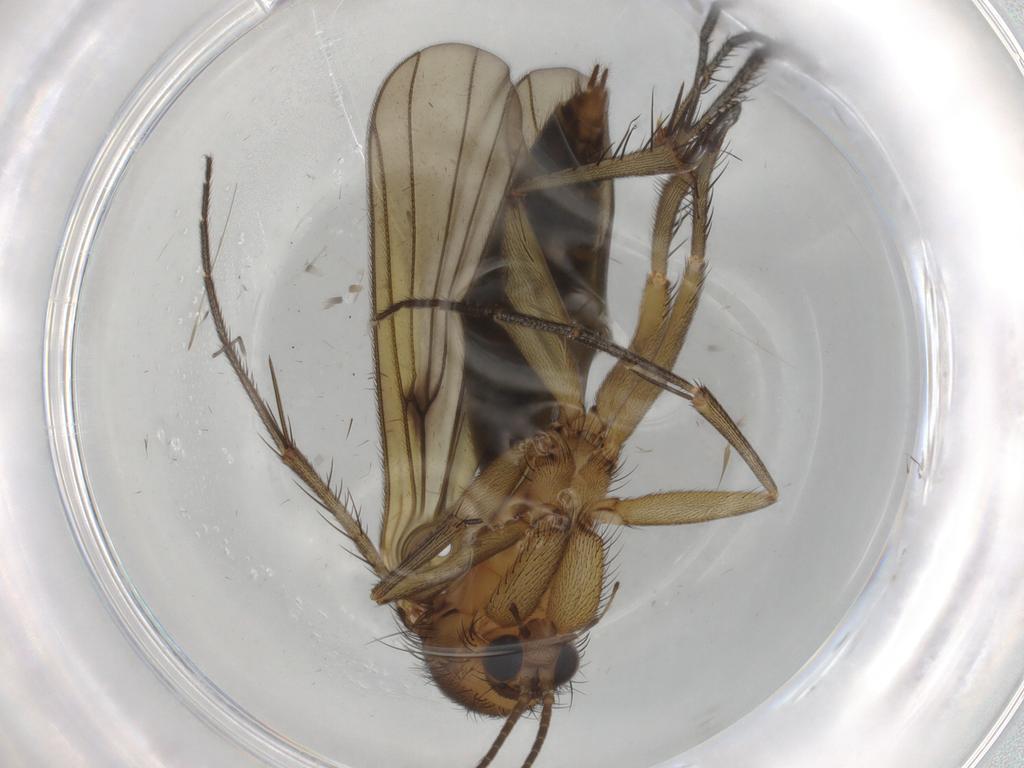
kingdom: Animalia
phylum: Arthropoda
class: Insecta
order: Diptera
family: Mycetophilidae
